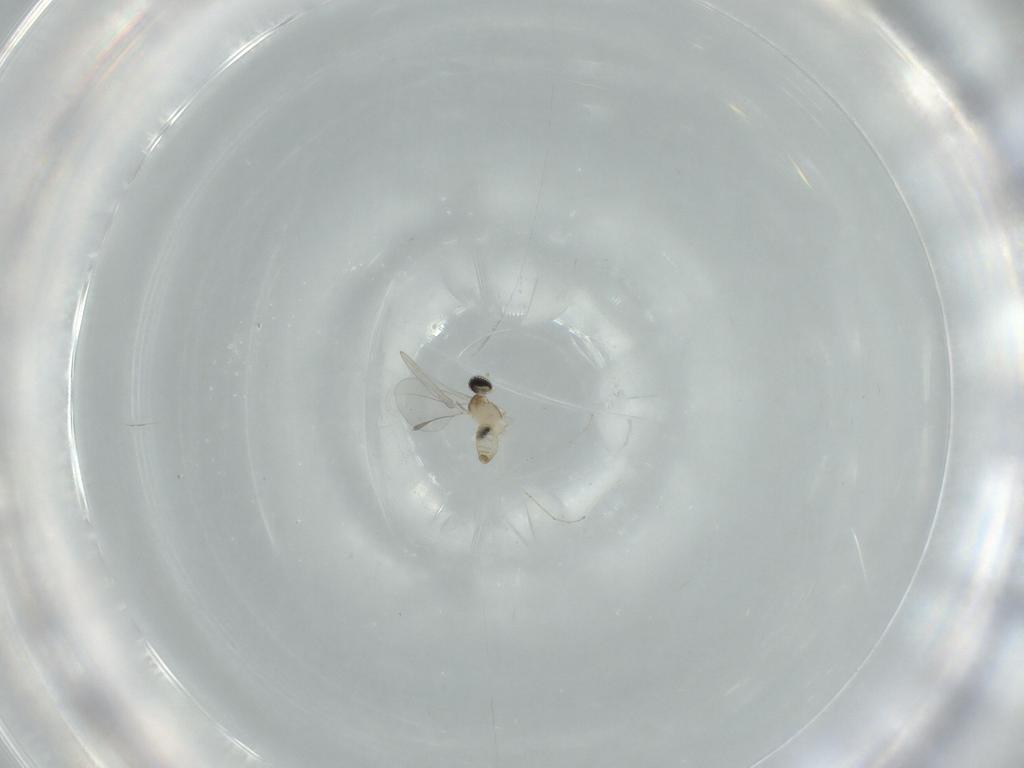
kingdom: Animalia
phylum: Arthropoda
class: Insecta
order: Diptera
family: Cecidomyiidae
